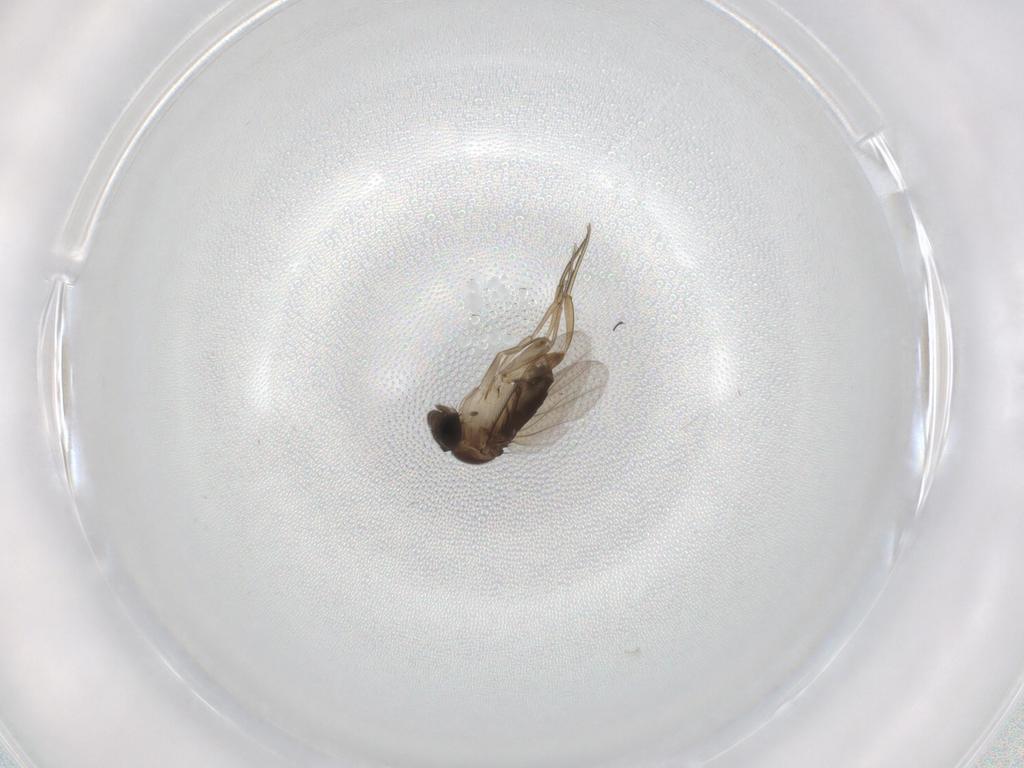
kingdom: Animalia
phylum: Arthropoda
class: Insecta
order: Diptera
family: Phoridae
